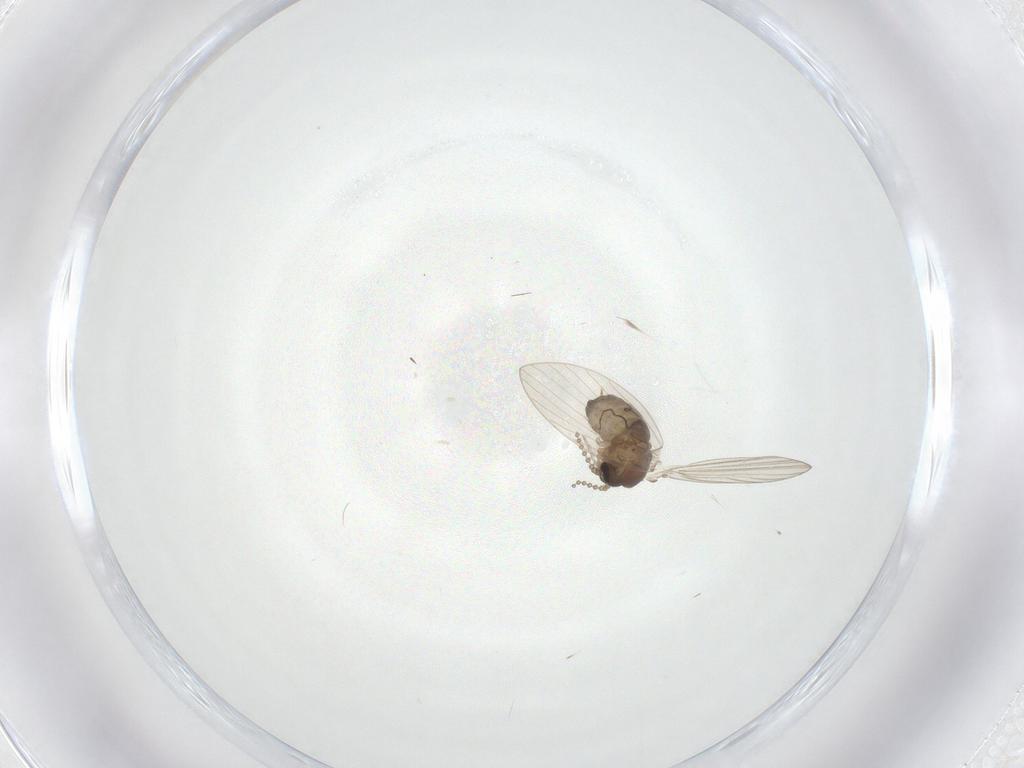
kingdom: Animalia
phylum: Arthropoda
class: Insecta
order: Diptera
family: Psychodidae
